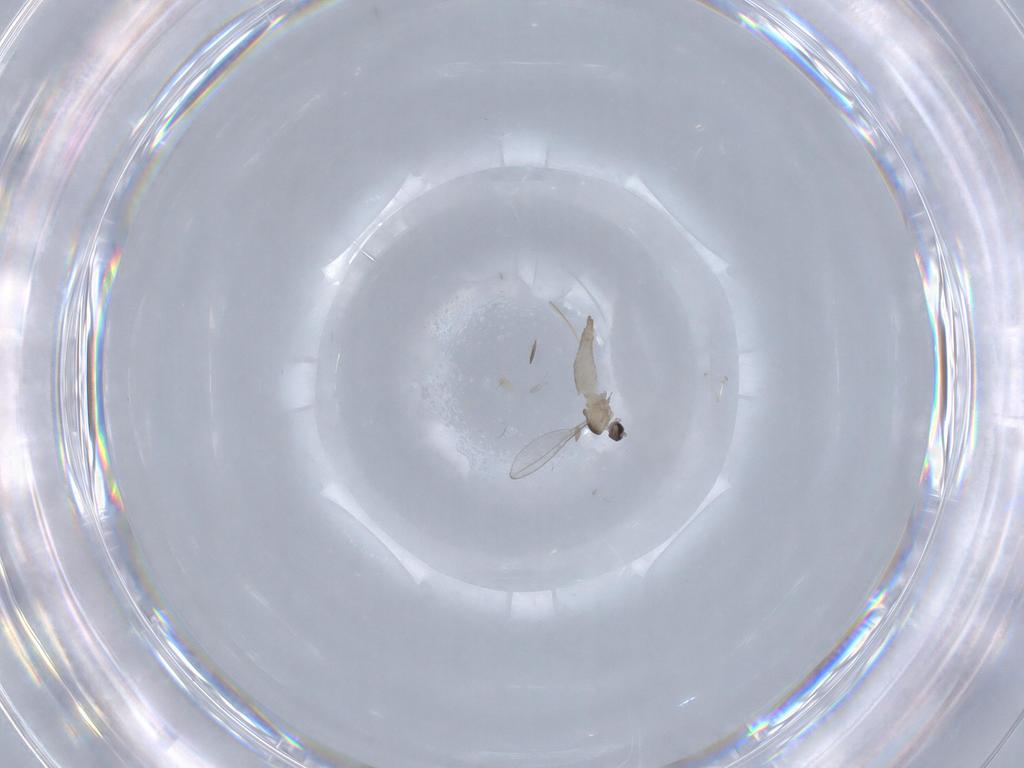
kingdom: Animalia
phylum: Arthropoda
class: Insecta
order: Diptera
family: Cecidomyiidae
